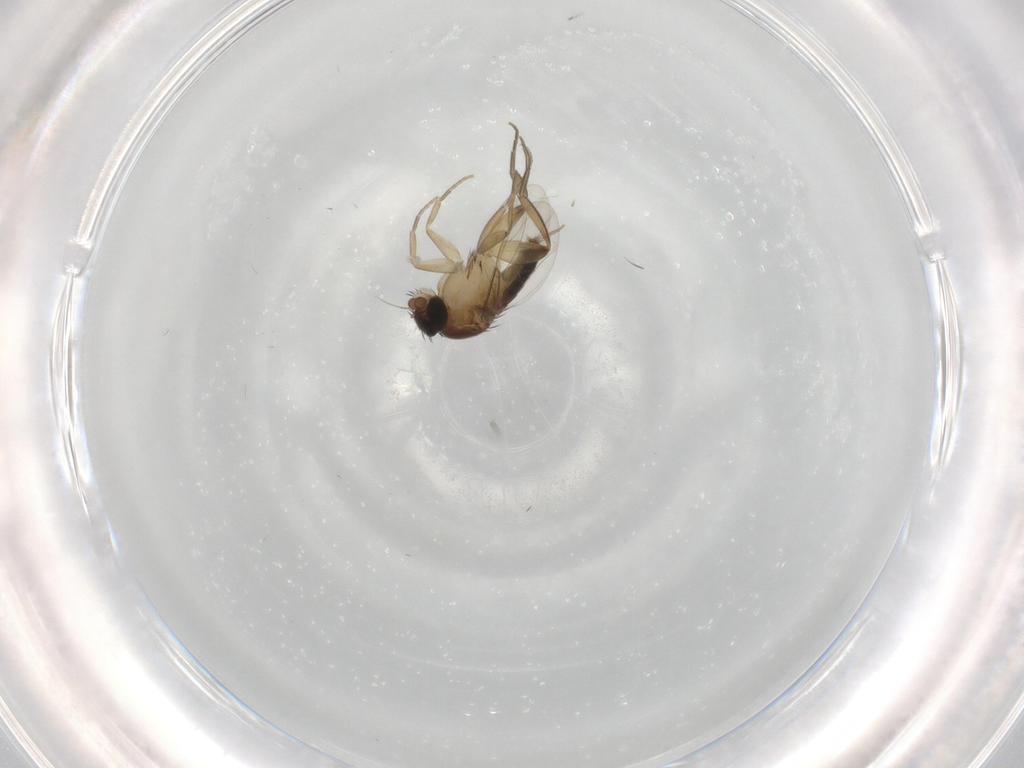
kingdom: Animalia
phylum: Arthropoda
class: Insecta
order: Diptera
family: Phoridae
